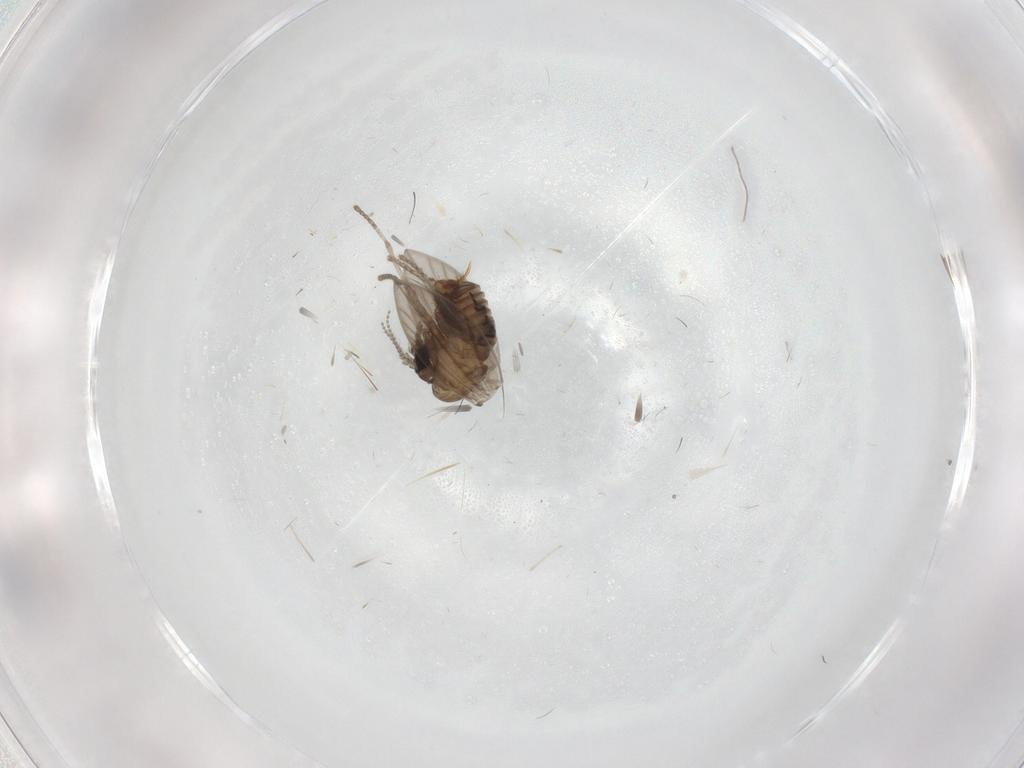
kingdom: Animalia
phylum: Arthropoda
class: Insecta
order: Diptera
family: Psychodidae
